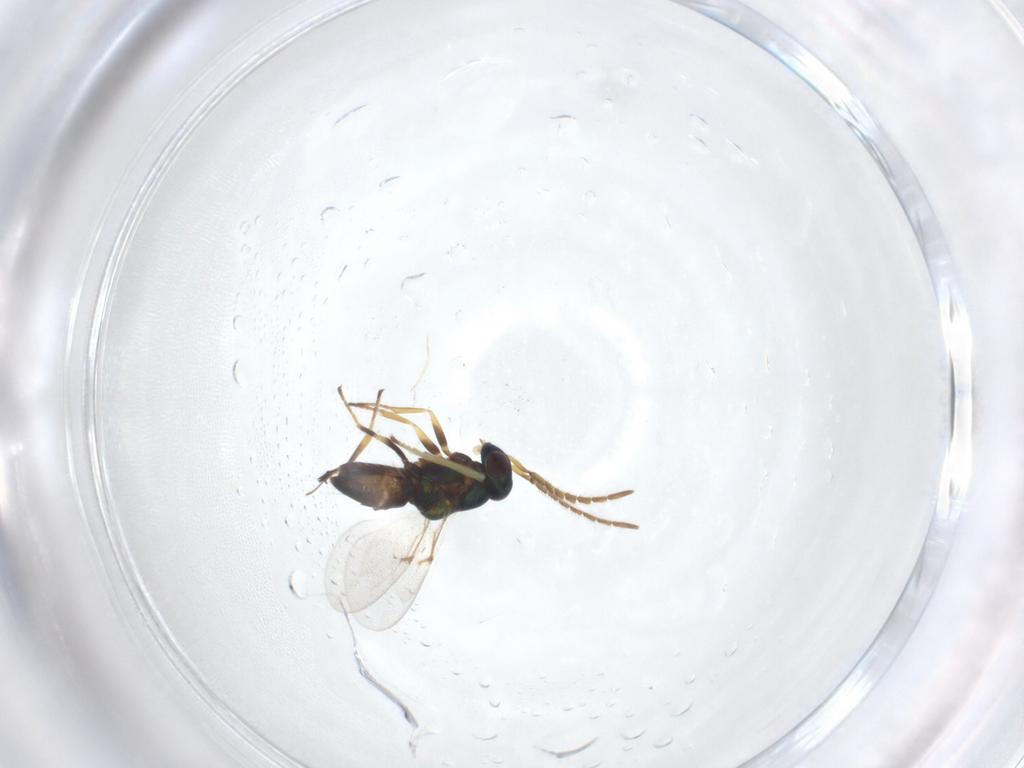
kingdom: Animalia
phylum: Arthropoda
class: Insecta
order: Hymenoptera
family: Encyrtidae
